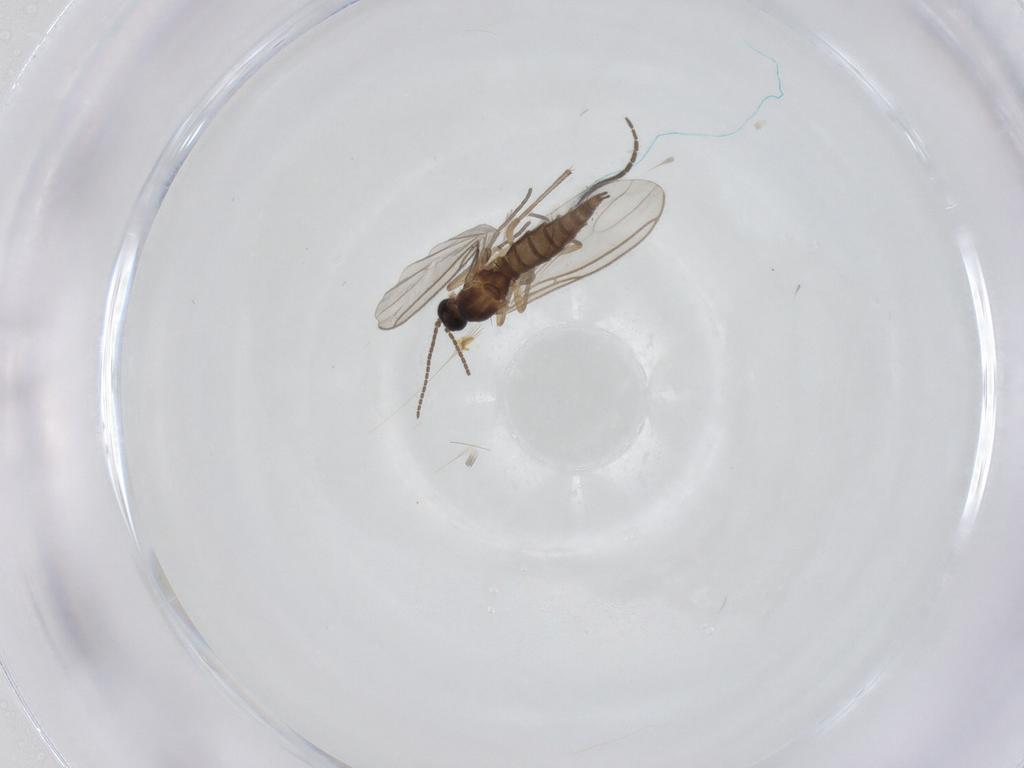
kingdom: Animalia
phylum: Arthropoda
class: Insecta
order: Diptera
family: Sciaridae
